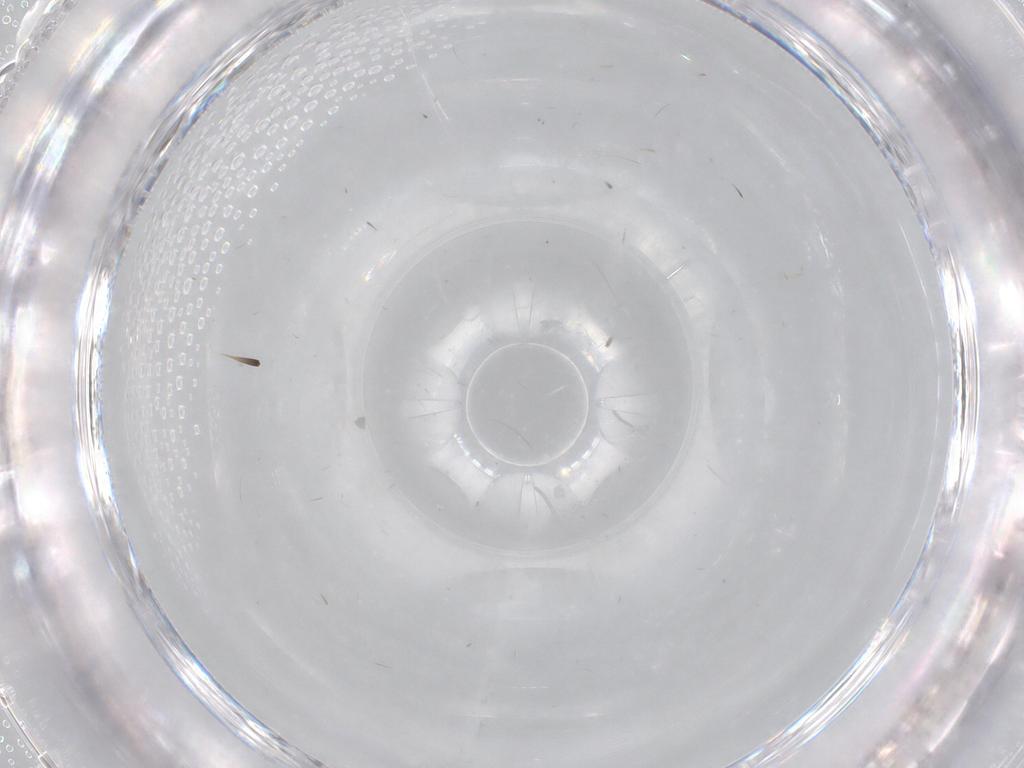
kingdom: Animalia
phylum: Arthropoda
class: Insecta
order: Diptera
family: Cecidomyiidae
